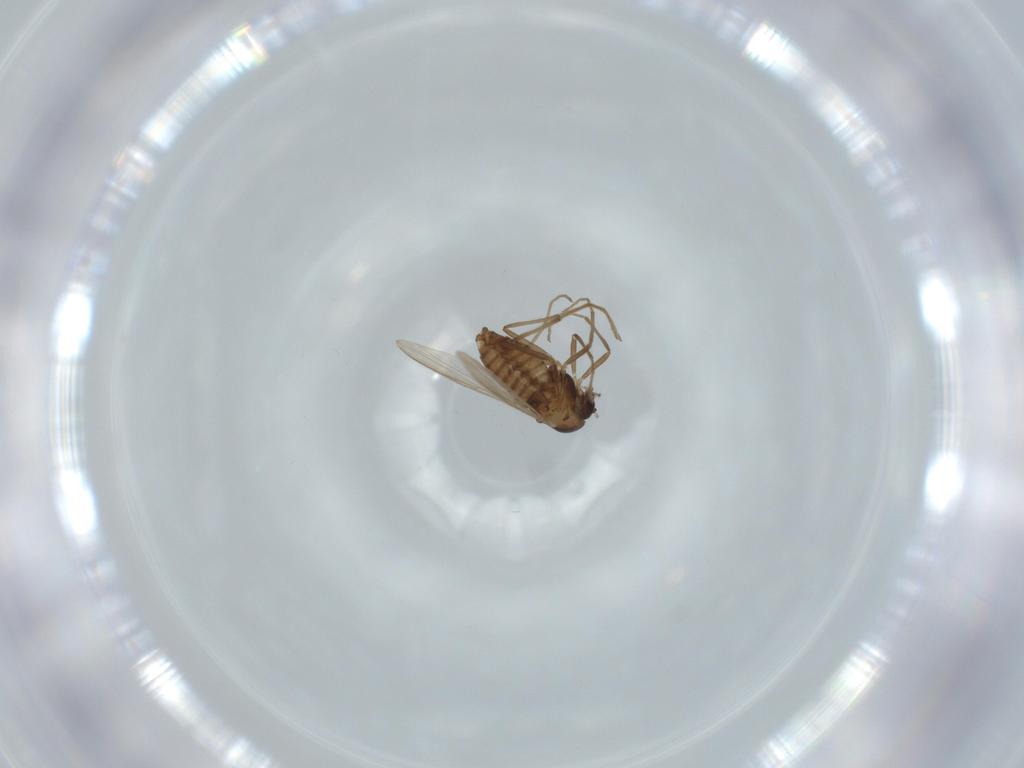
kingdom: Animalia
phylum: Arthropoda
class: Insecta
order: Diptera
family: Chironomidae
